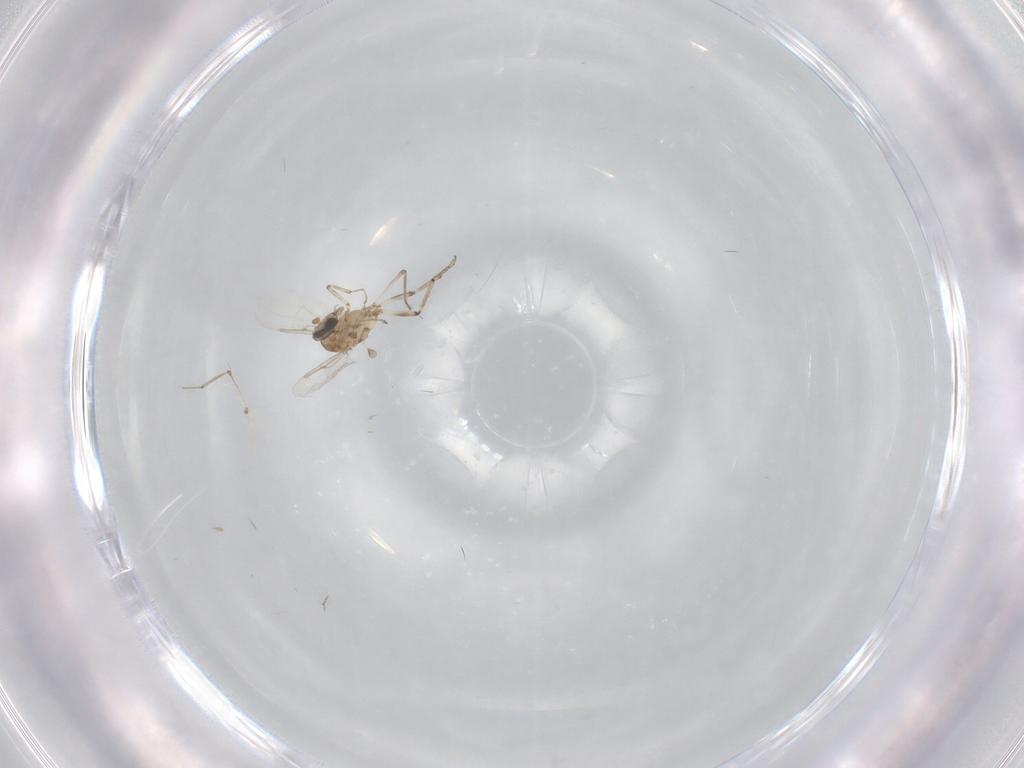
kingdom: Animalia
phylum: Arthropoda
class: Insecta
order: Diptera
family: Ceratopogonidae
